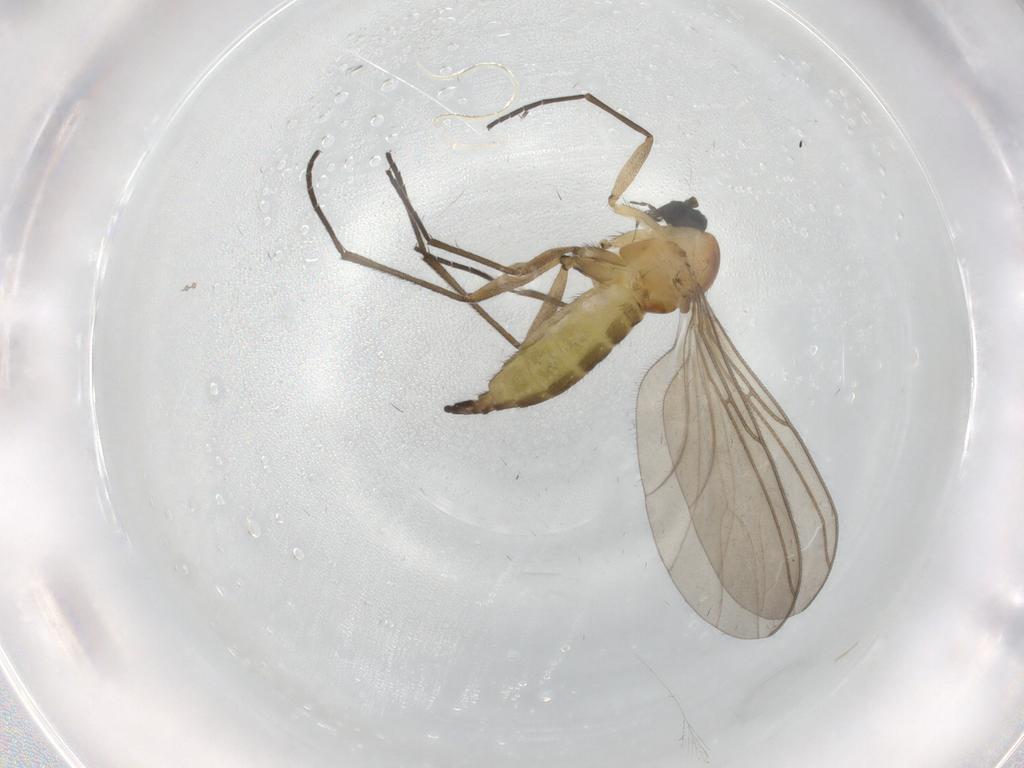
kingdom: Animalia
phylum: Arthropoda
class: Insecta
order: Diptera
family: Sciaridae
